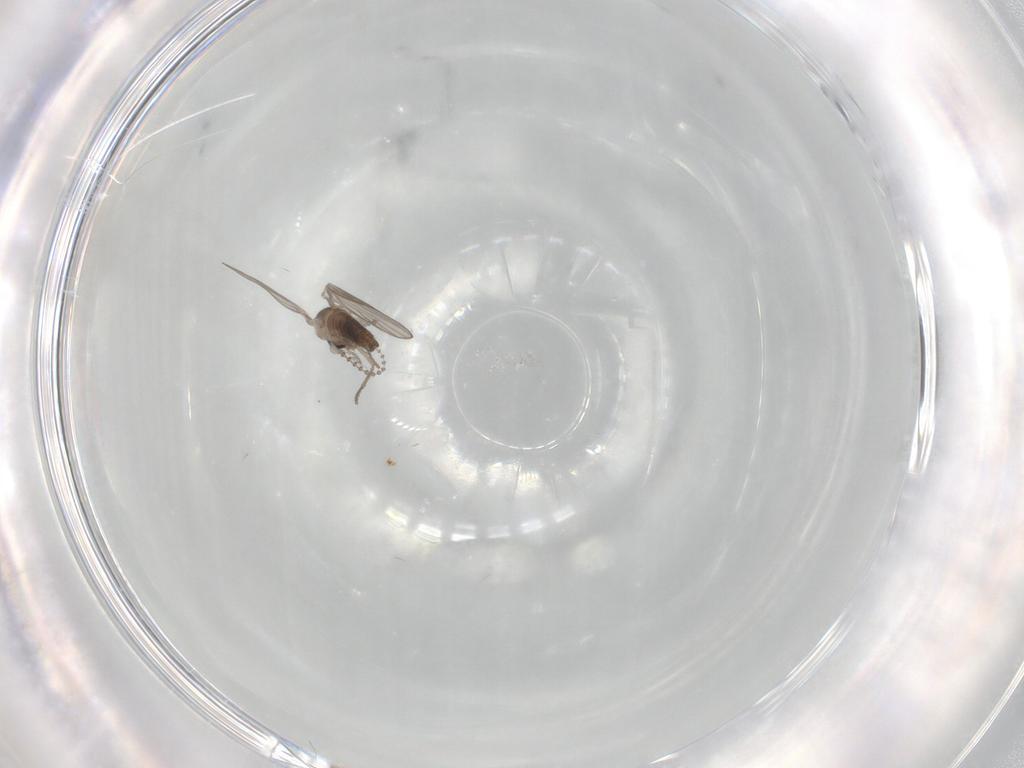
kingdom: Animalia
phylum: Arthropoda
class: Insecta
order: Diptera
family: Psychodidae
